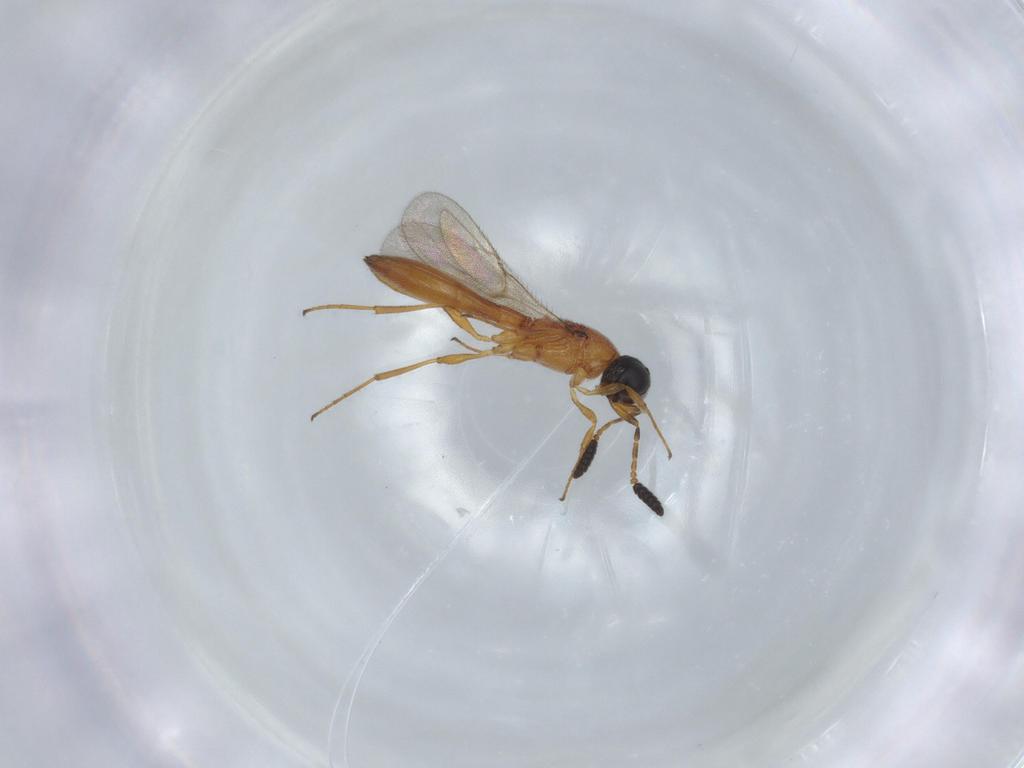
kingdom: Animalia
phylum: Arthropoda
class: Insecta
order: Hymenoptera
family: Scelionidae
